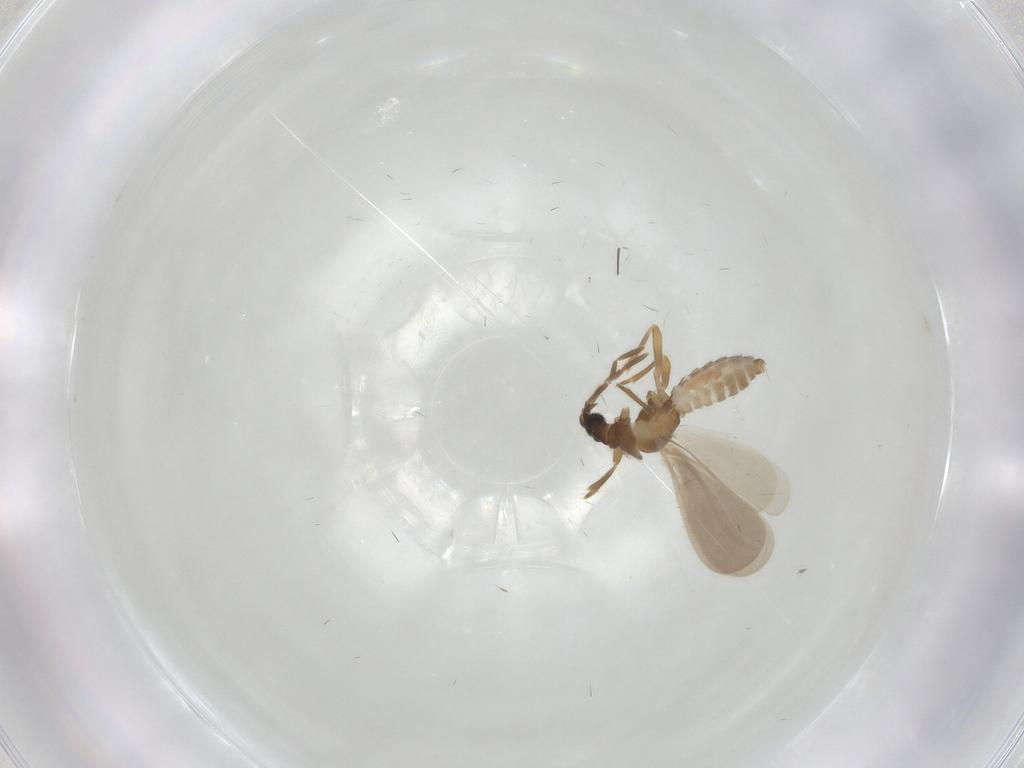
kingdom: Animalia
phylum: Arthropoda
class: Insecta
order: Hemiptera
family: Enicocephalidae
